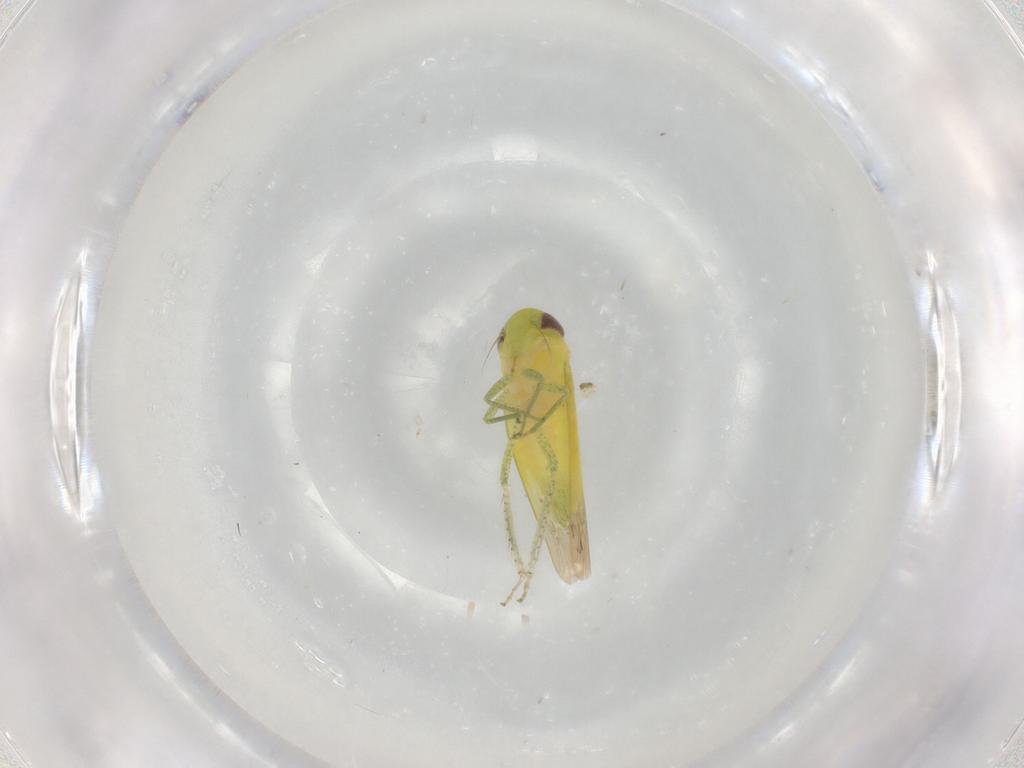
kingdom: Animalia
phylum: Arthropoda
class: Insecta
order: Hemiptera
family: Cicadellidae
